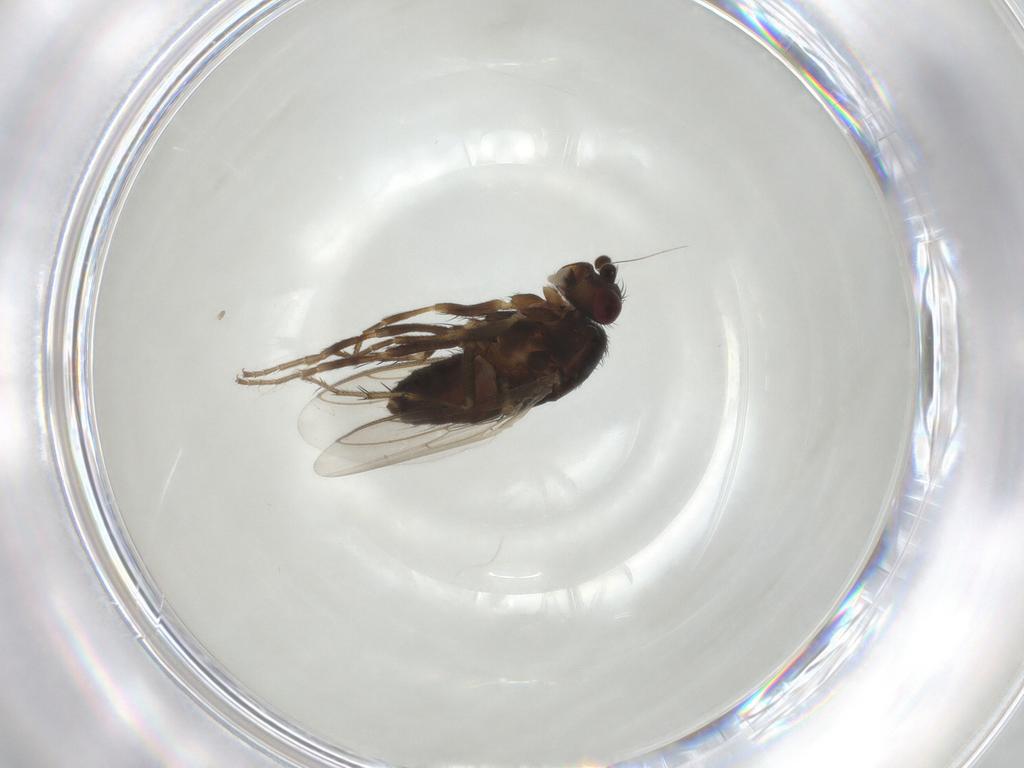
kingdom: Animalia
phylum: Arthropoda
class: Insecta
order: Diptera
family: Sphaeroceridae
